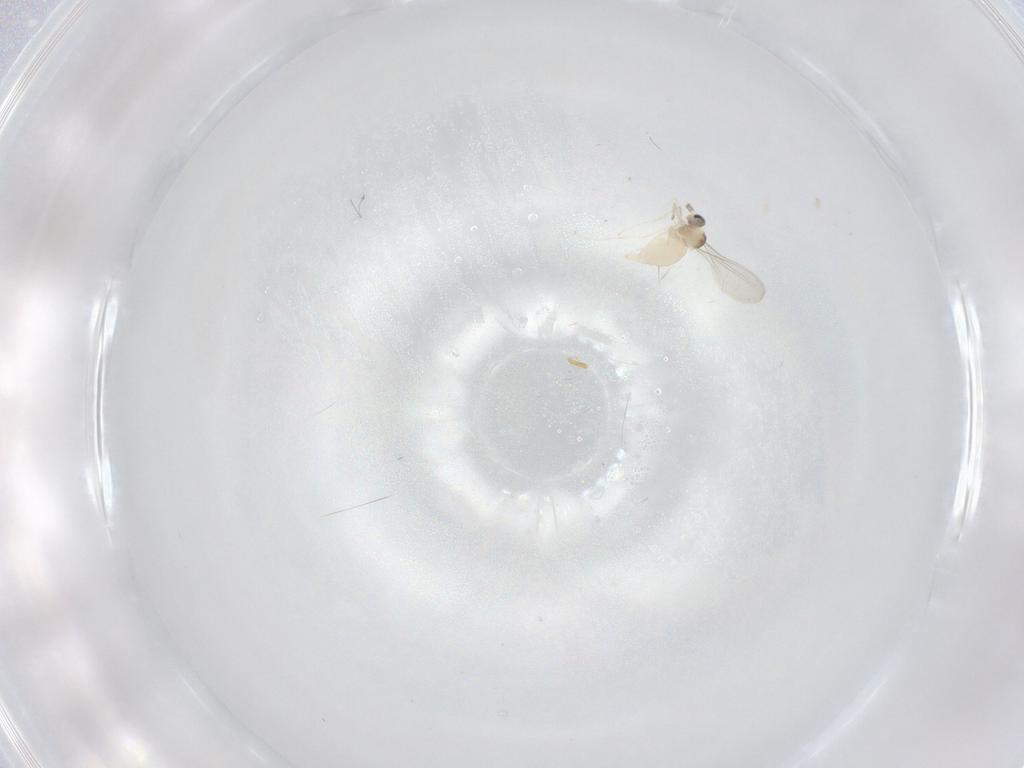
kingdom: Animalia
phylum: Arthropoda
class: Insecta
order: Diptera
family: Cecidomyiidae
